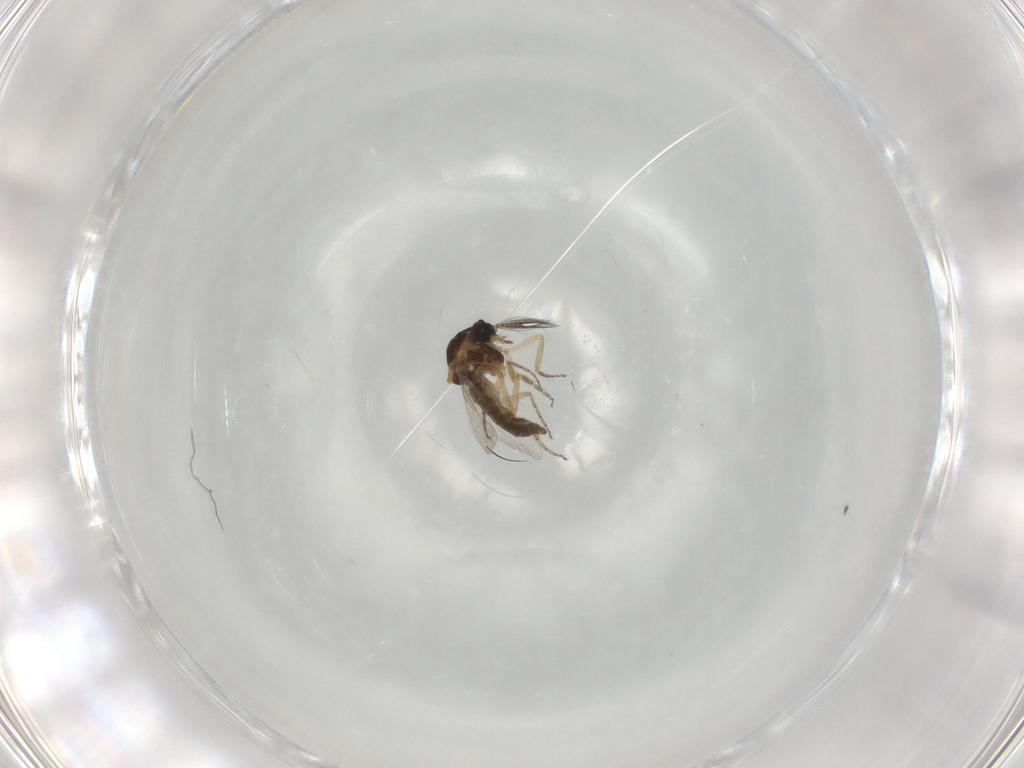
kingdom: Animalia
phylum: Arthropoda
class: Insecta
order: Diptera
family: Ceratopogonidae
